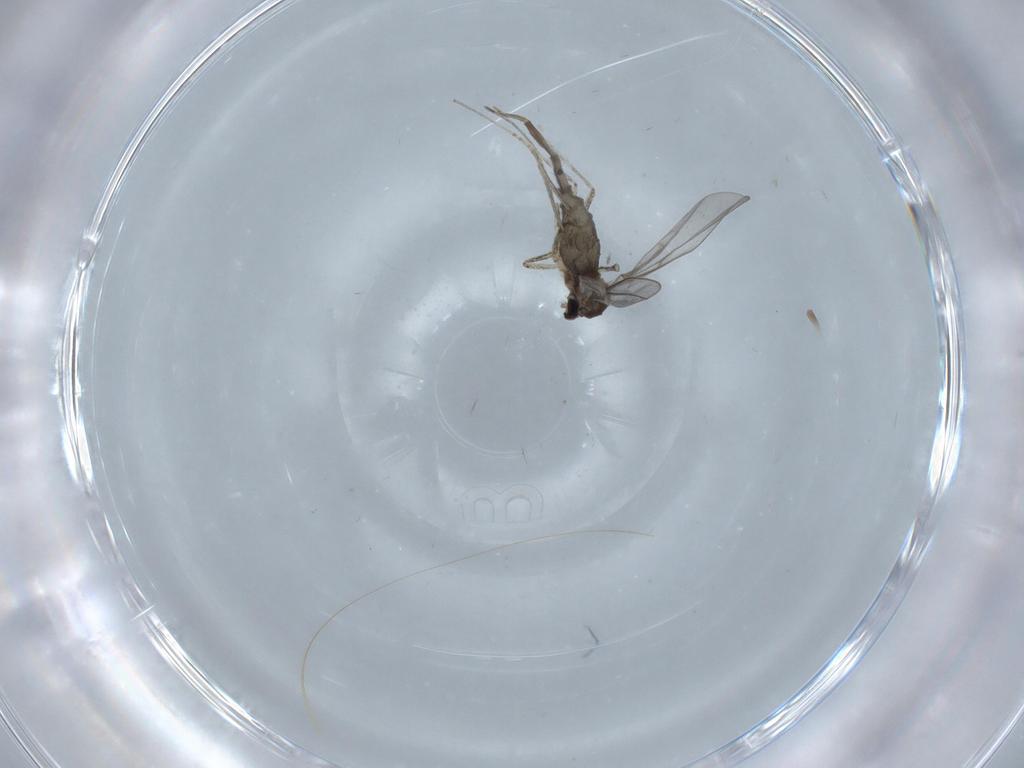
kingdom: Animalia
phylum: Arthropoda
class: Insecta
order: Diptera
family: Cecidomyiidae
